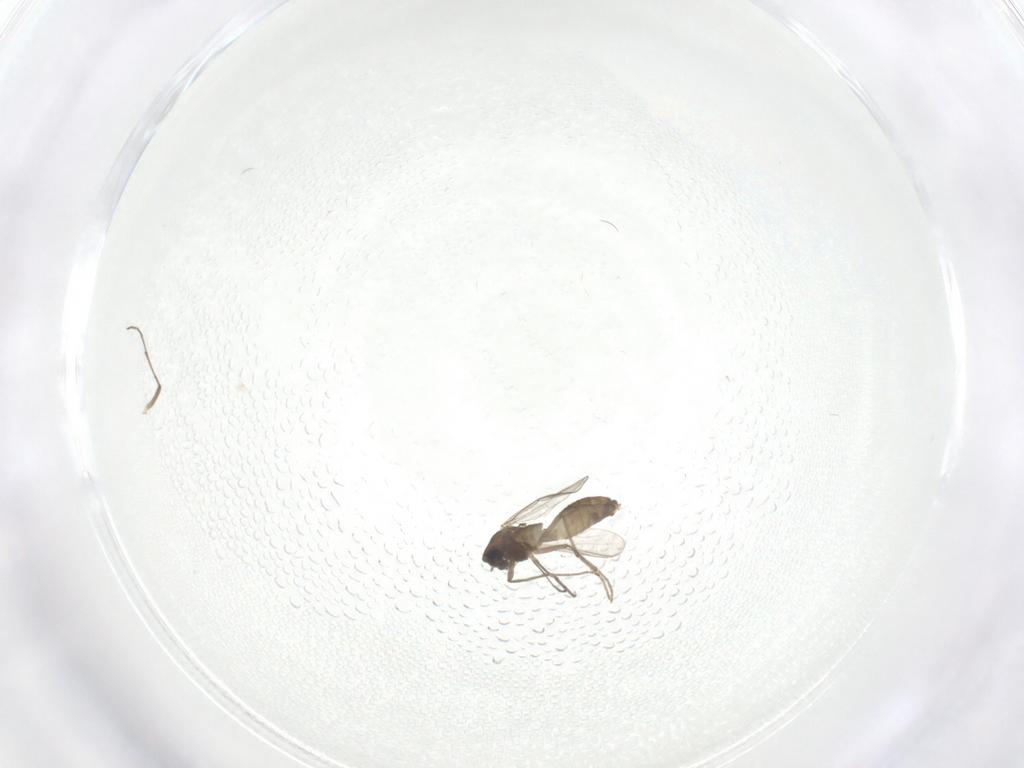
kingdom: Animalia
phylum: Arthropoda
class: Insecta
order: Diptera
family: Chironomidae
